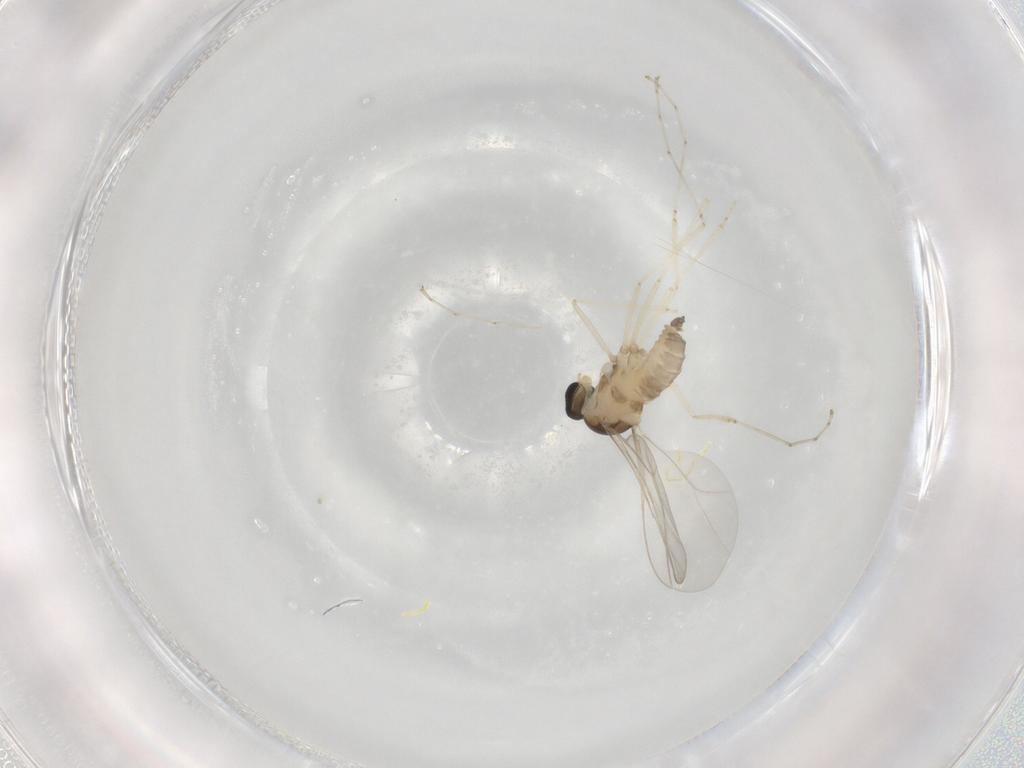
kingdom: Animalia
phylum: Arthropoda
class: Insecta
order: Diptera
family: Cecidomyiidae
